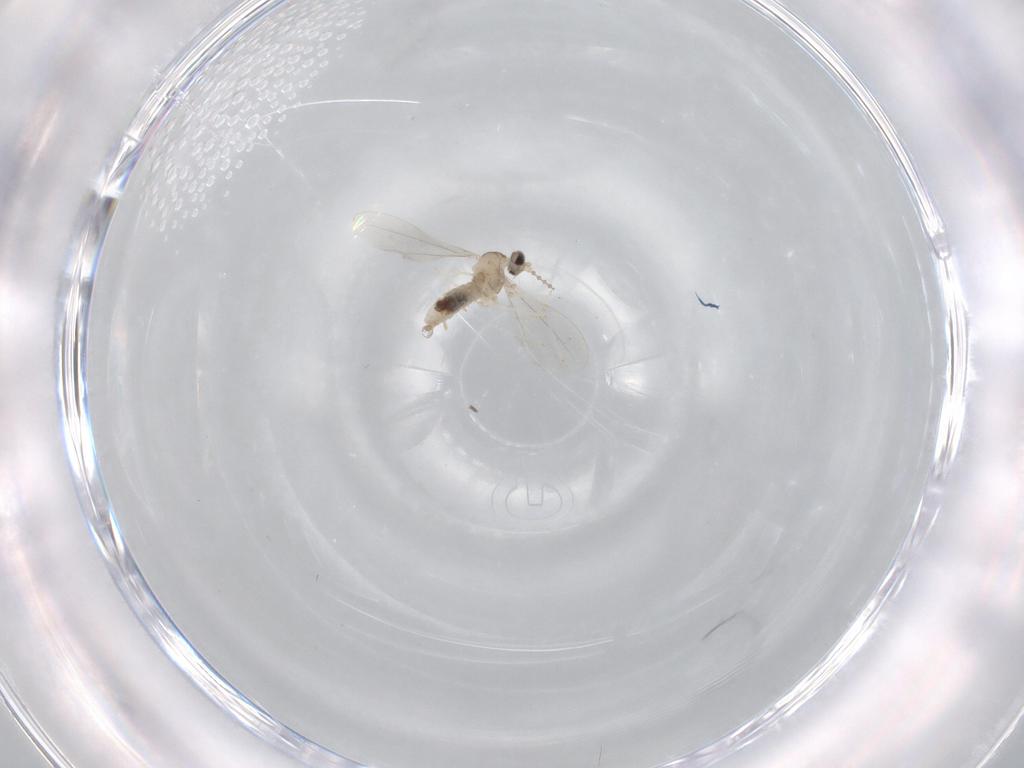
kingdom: Animalia
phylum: Arthropoda
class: Insecta
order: Diptera
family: Cecidomyiidae
